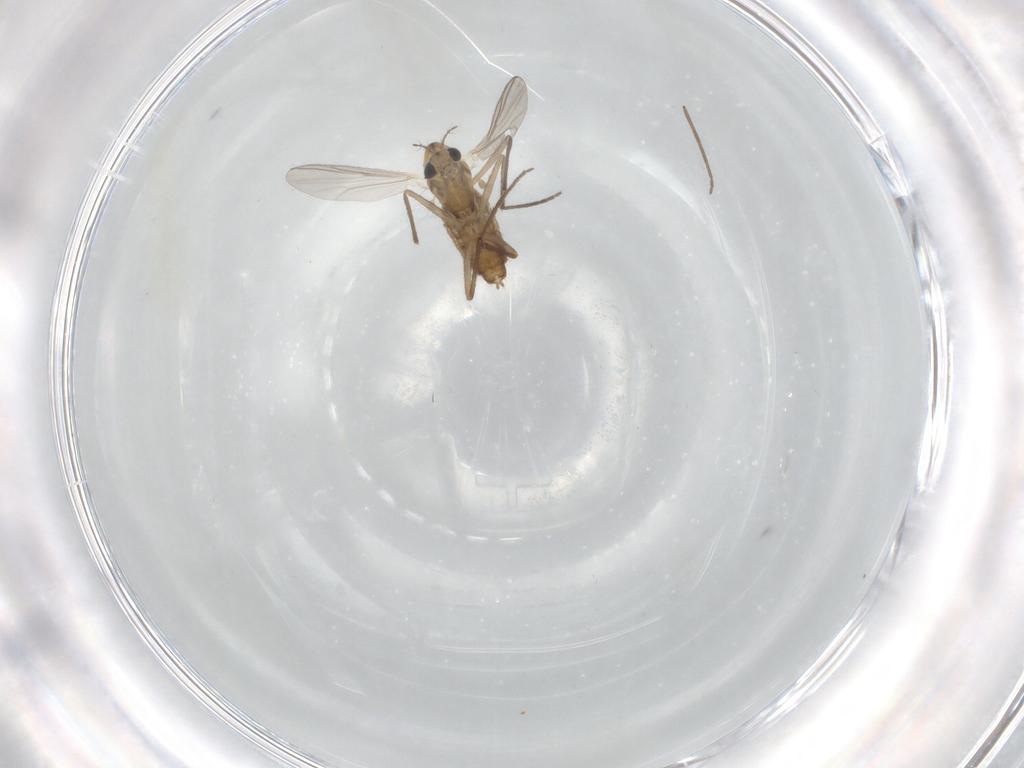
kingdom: Animalia
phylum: Arthropoda
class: Insecta
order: Diptera
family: Chironomidae
